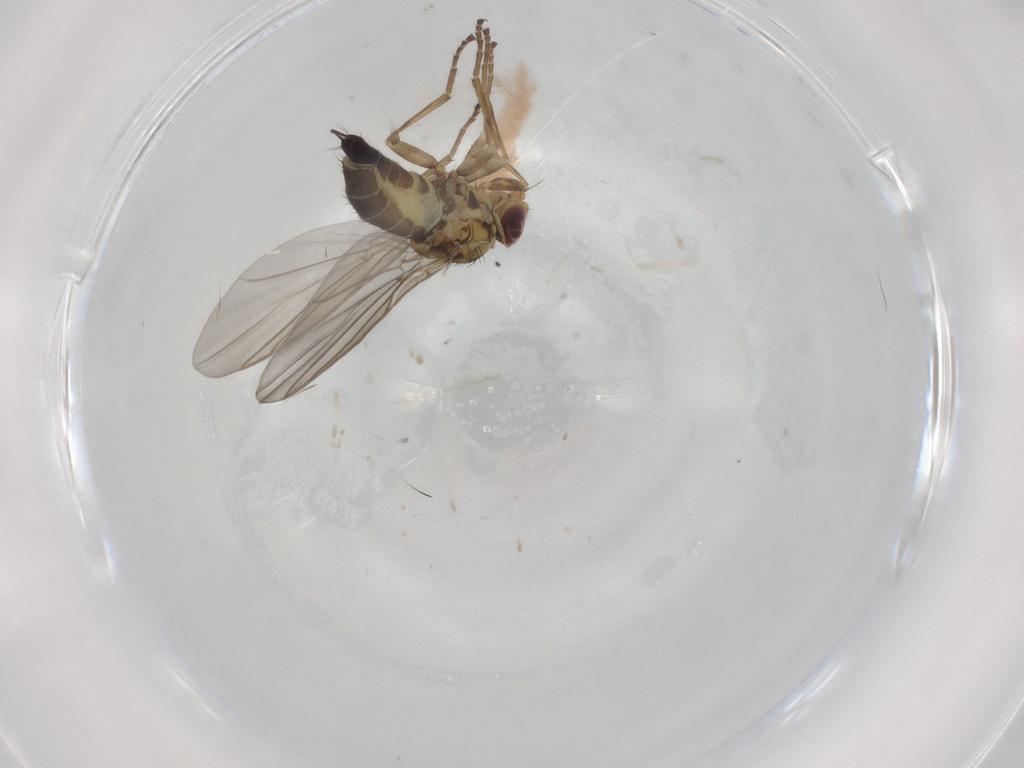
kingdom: Animalia
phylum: Arthropoda
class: Insecta
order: Diptera
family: Agromyzidae
